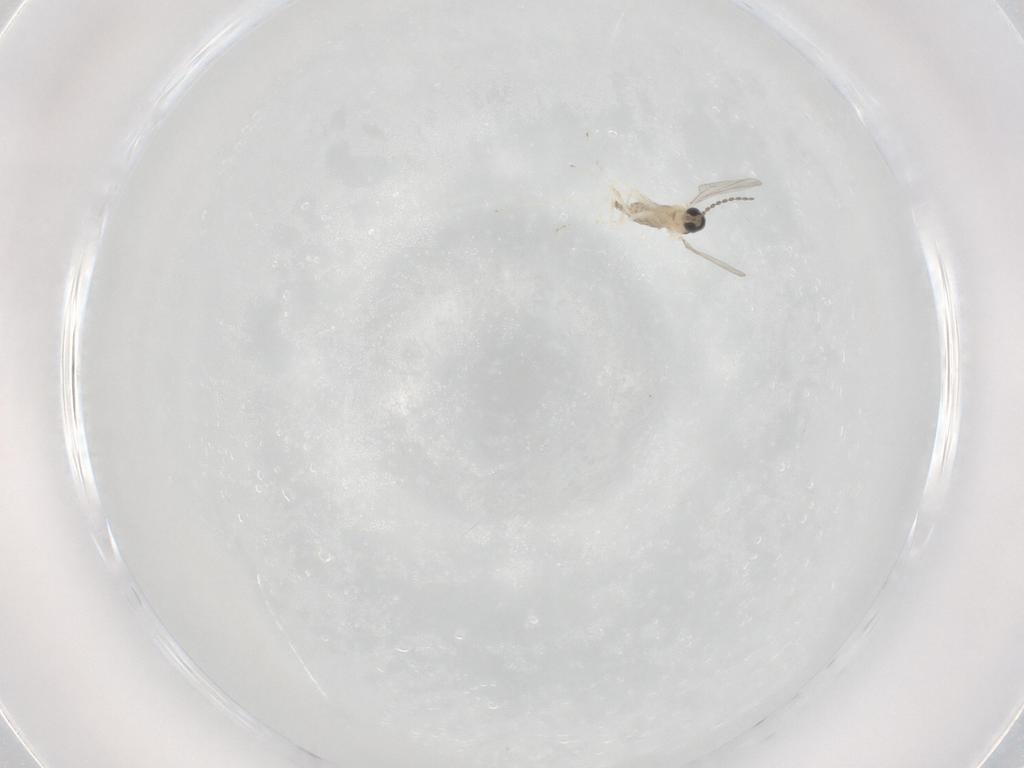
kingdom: Animalia
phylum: Arthropoda
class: Insecta
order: Diptera
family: Cecidomyiidae
